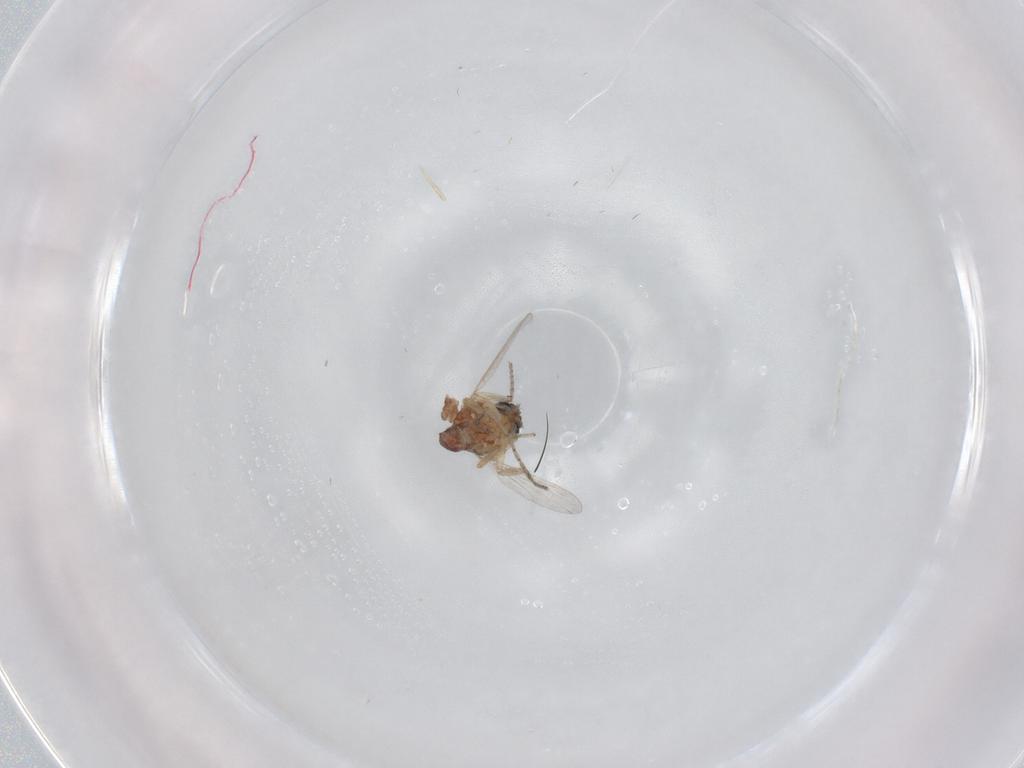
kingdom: Animalia
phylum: Arthropoda
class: Insecta
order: Diptera
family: Ceratopogonidae
